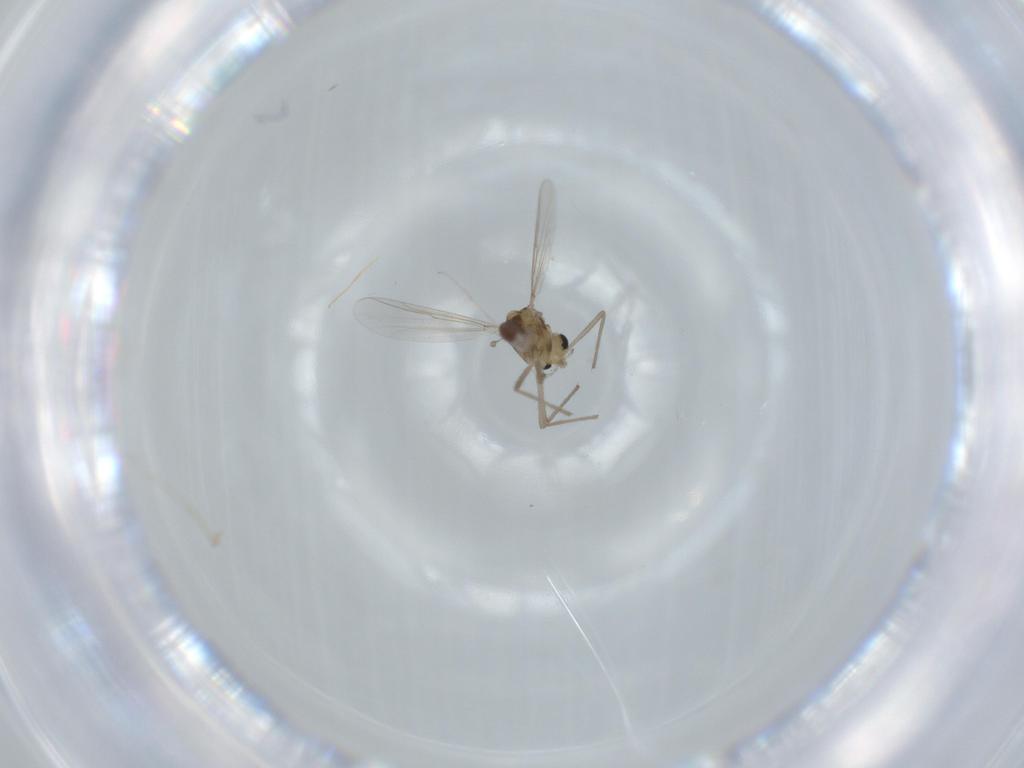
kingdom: Animalia
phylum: Arthropoda
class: Insecta
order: Diptera
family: Chironomidae
